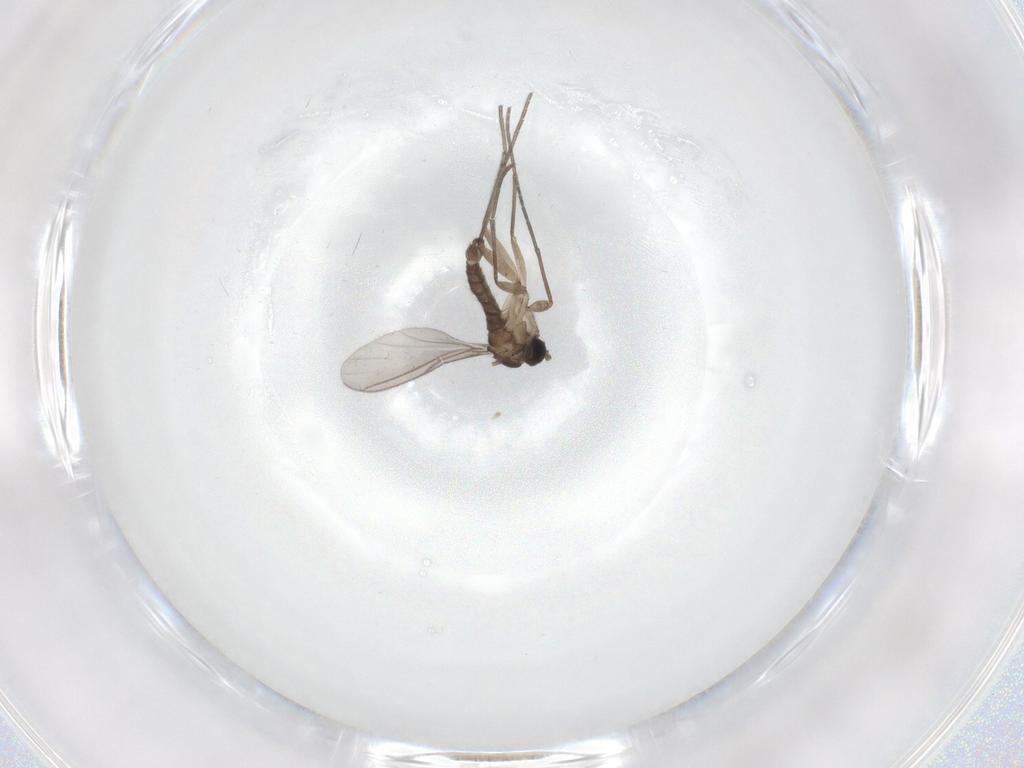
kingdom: Animalia
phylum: Arthropoda
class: Insecta
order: Diptera
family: Sciaridae
